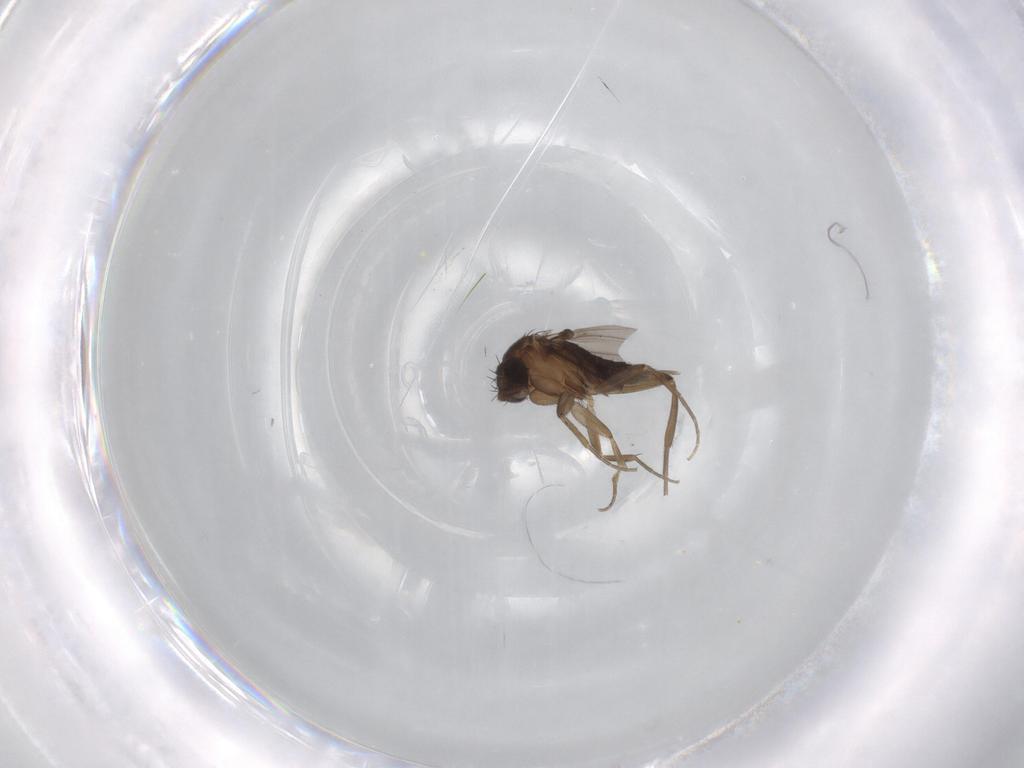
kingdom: Animalia
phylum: Arthropoda
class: Insecta
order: Diptera
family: Phoridae
